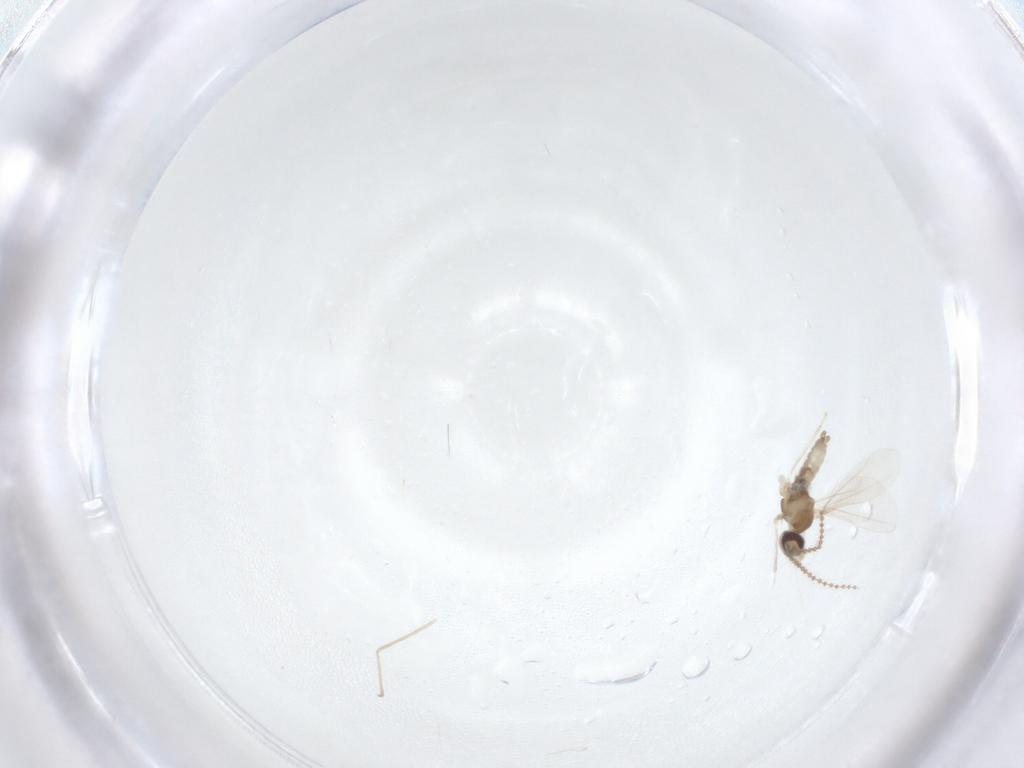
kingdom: Animalia
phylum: Arthropoda
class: Insecta
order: Diptera
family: Cecidomyiidae
